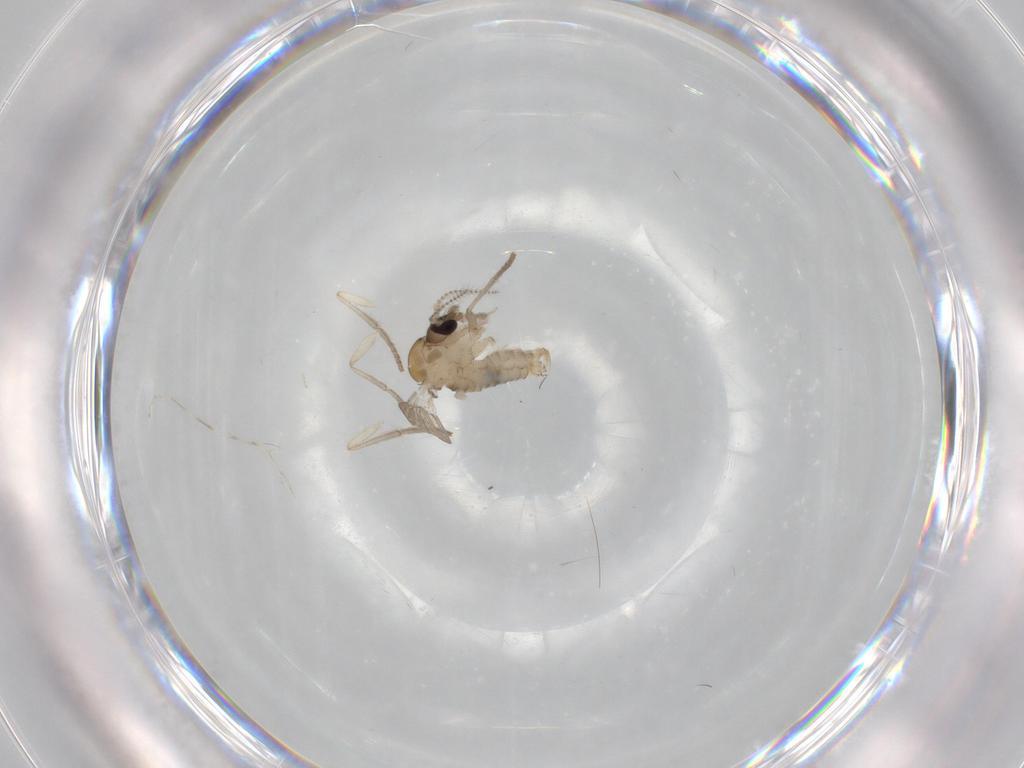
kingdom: Animalia
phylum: Arthropoda
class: Insecta
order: Diptera
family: Psychodidae
